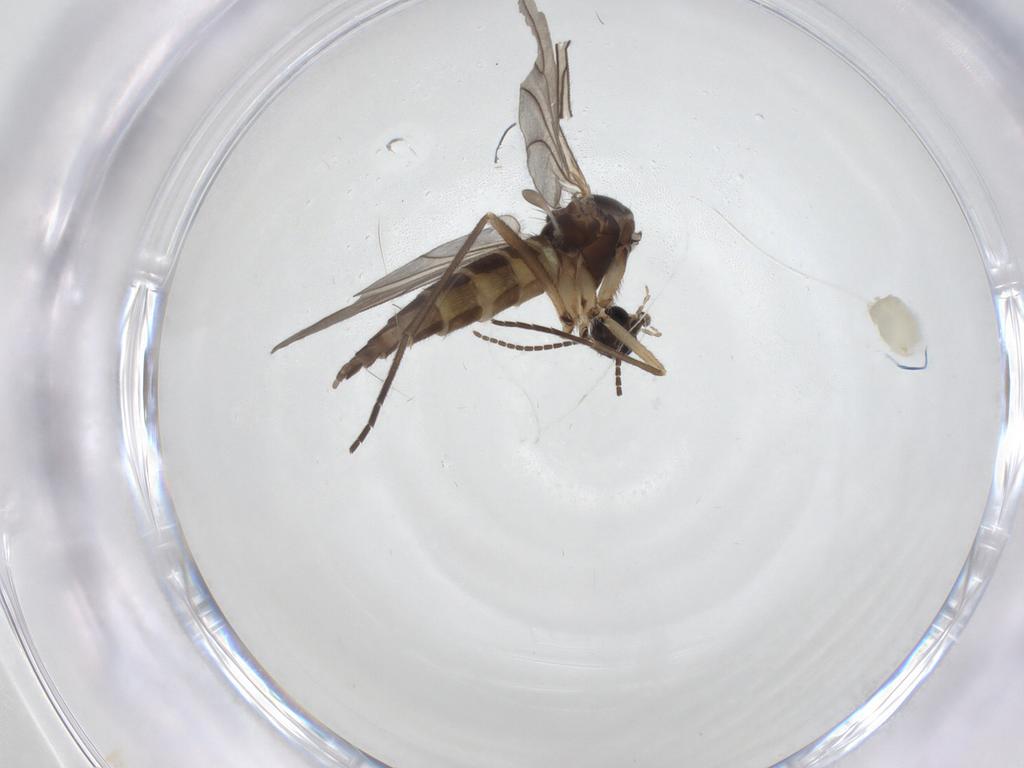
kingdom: Animalia
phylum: Arthropoda
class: Insecta
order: Diptera
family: Sciaridae
